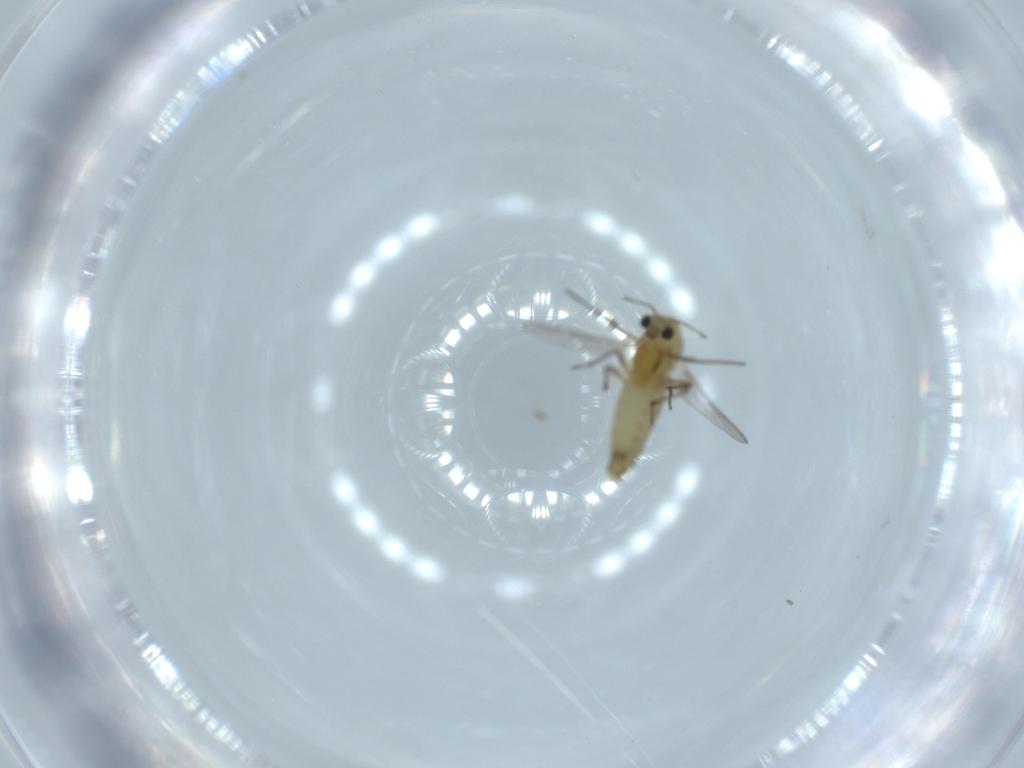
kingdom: Animalia
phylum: Arthropoda
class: Insecta
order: Diptera
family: Chironomidae
